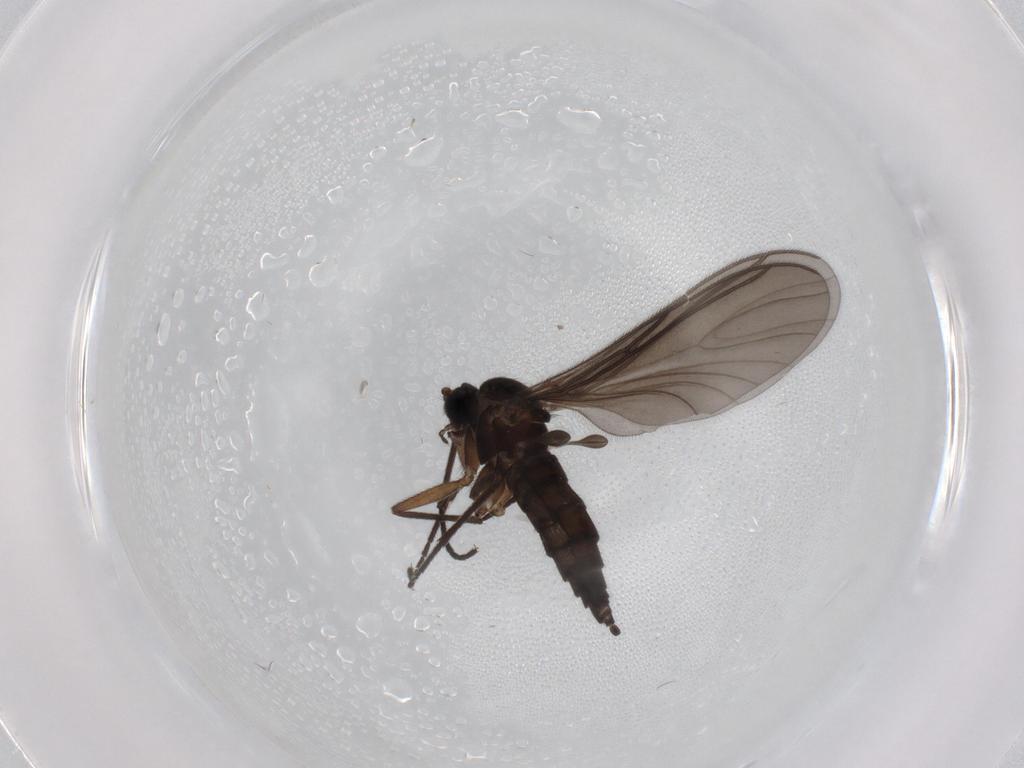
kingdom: Animalia
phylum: Arthropoda
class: Insecta
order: Diptera
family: Sciaridae
